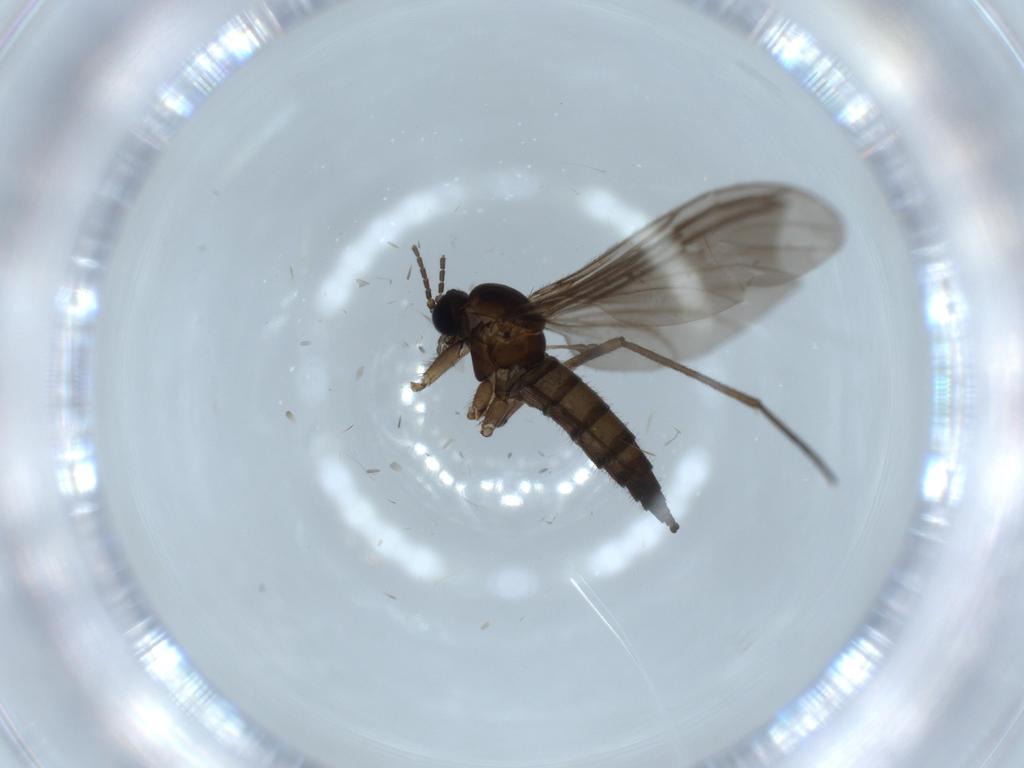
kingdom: Animalia
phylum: Arthropoda
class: Insecta
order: Diptera
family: Sciaridae
